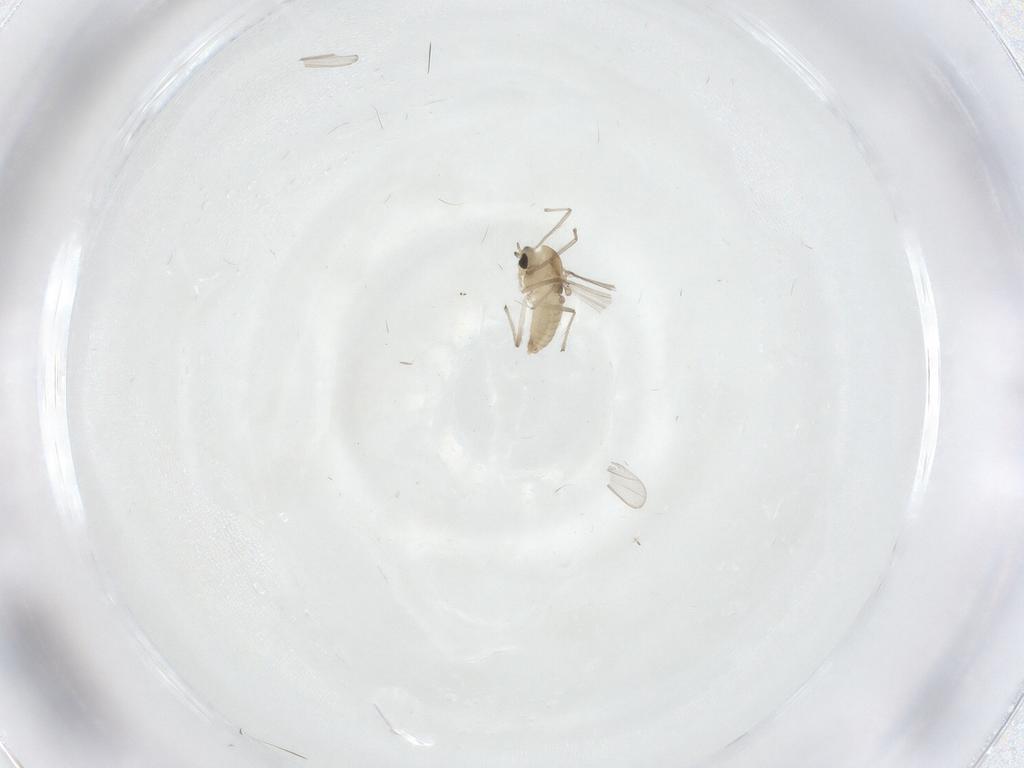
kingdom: Animalia
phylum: Arthropoda
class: Insecta
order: Diptera
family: Chironomidae
